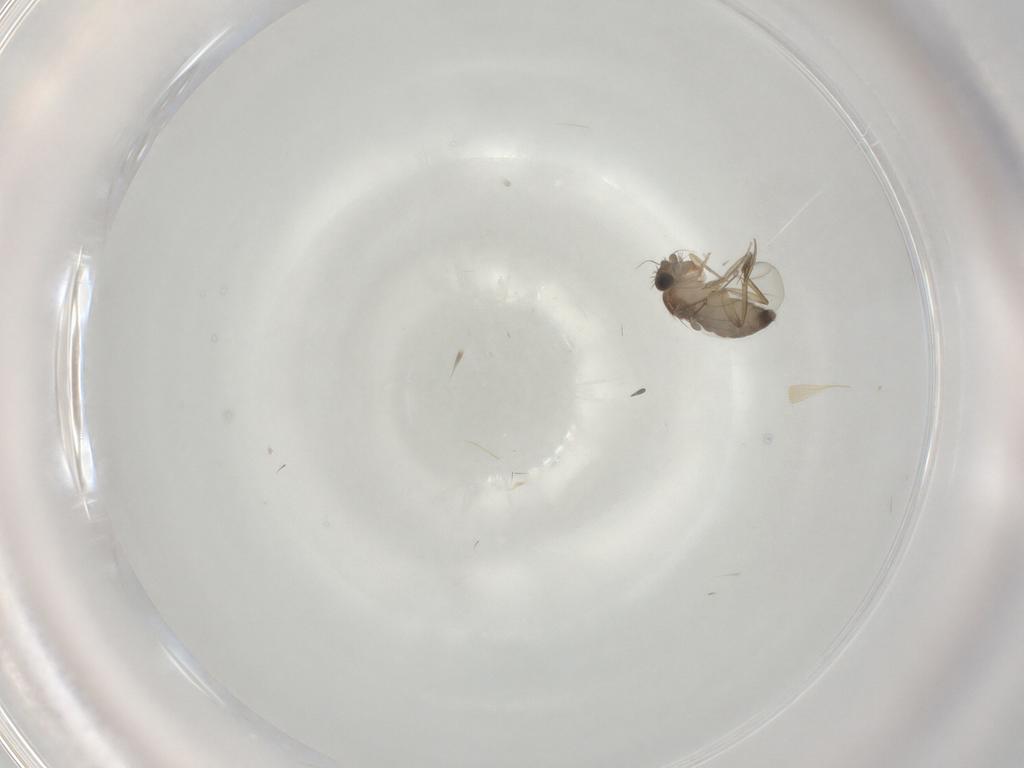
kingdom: Animalia
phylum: Arthropoda
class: Insecta
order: Diptera
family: Phoridae
